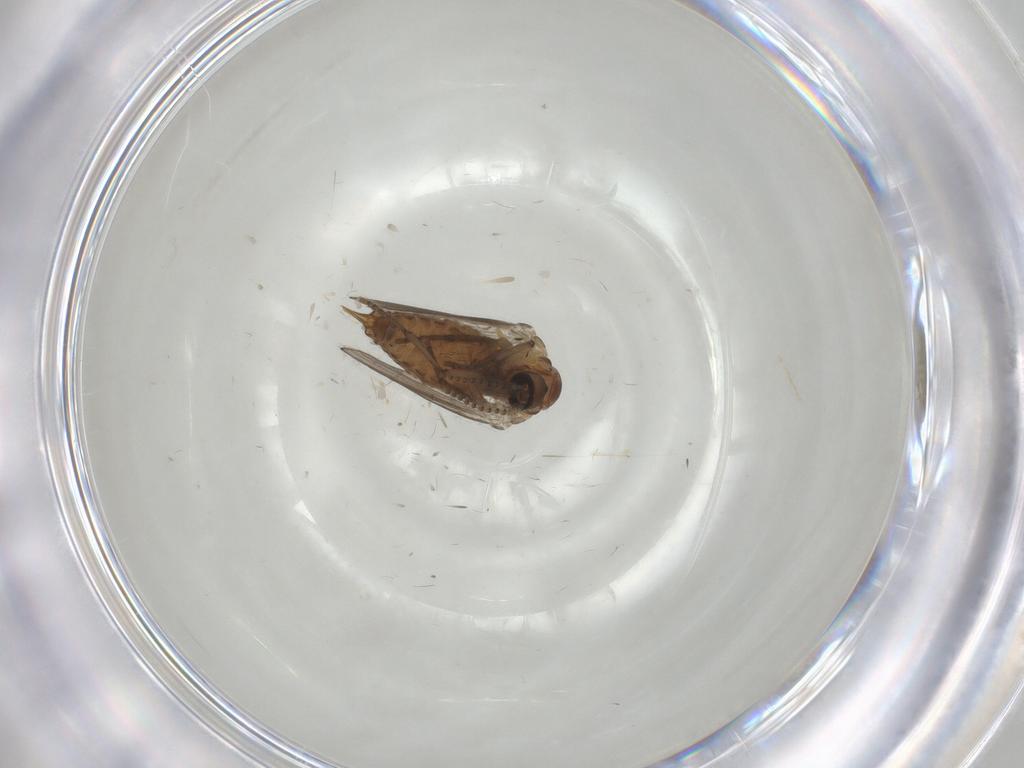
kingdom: Animalia
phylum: Arthropoda
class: Insecta
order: Diptera
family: Psychodidae
